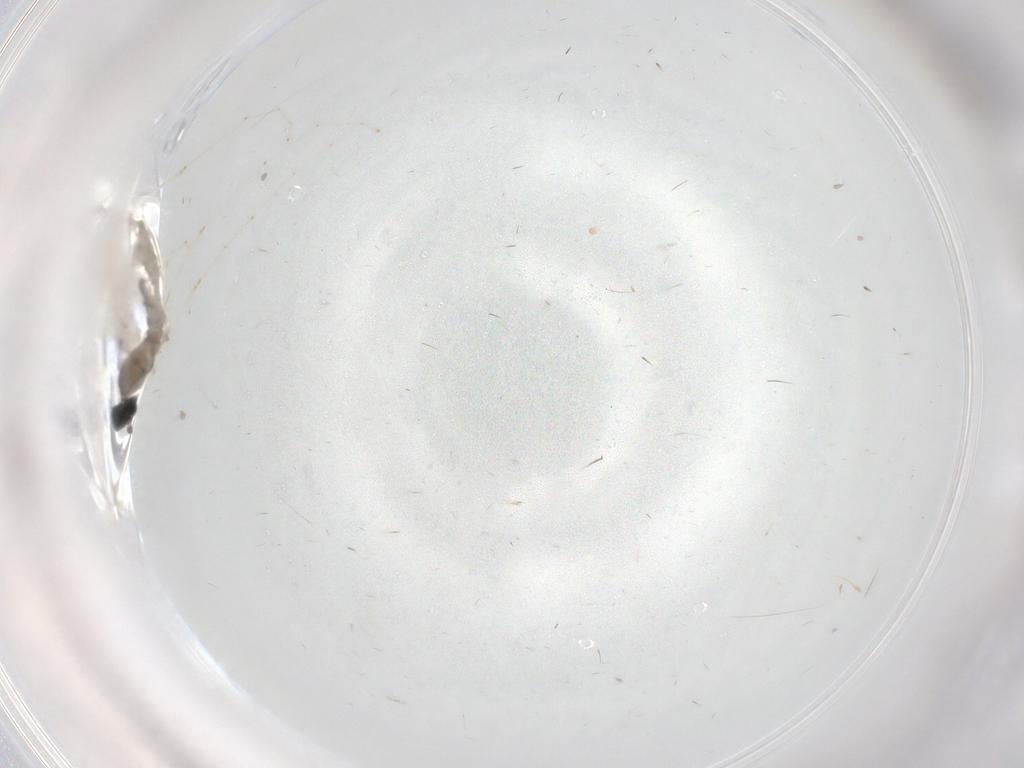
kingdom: Animalia
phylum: Arthropoda
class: Insecta
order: Diptera
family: Cecidomyiidae
